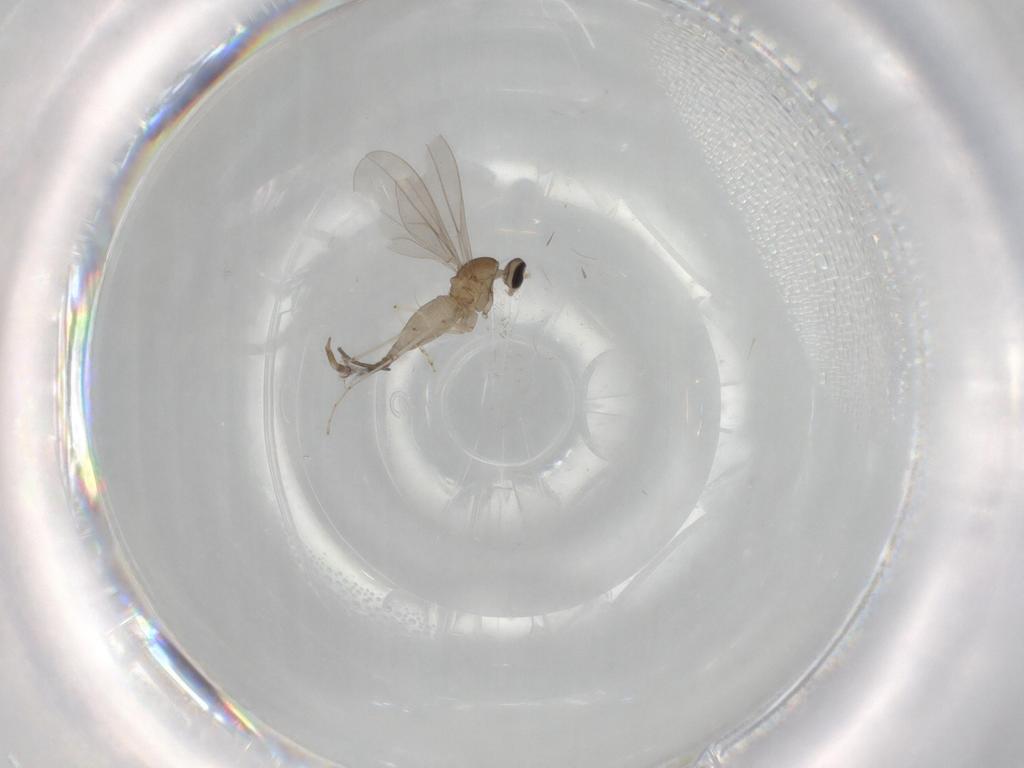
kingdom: Animalia
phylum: Arthropoda
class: Insecta
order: Diptera
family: Cecidomyiidae
